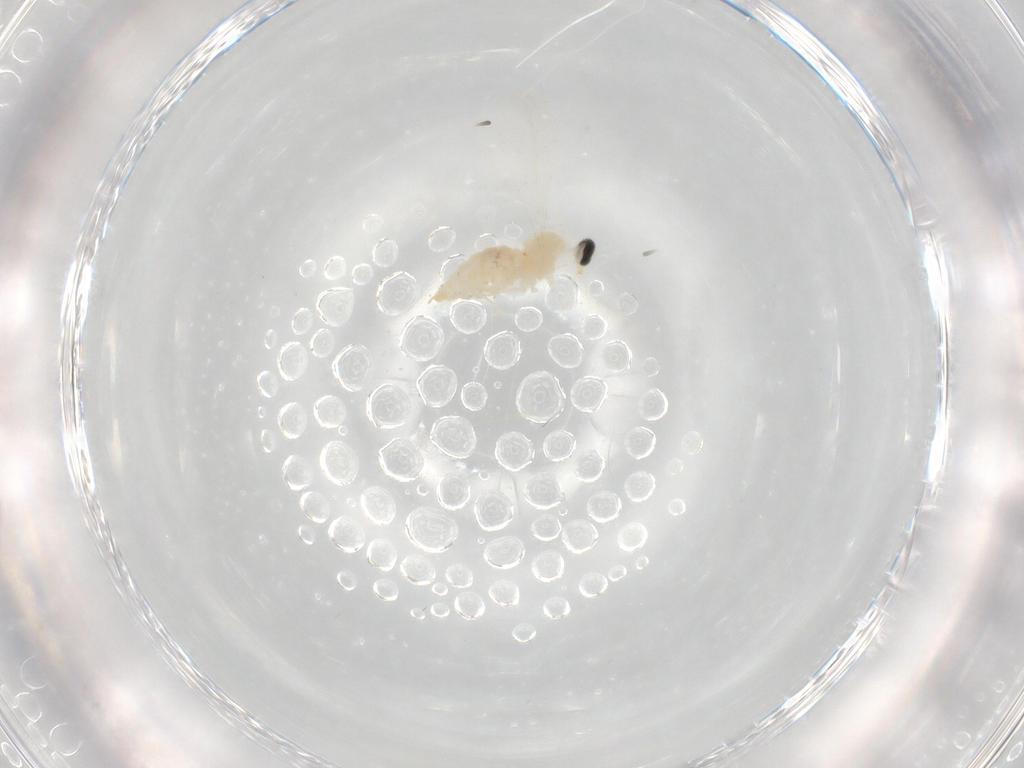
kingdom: Animalia
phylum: Arthropoda
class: Insecta
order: Diptera
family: Cecidomyiidae
